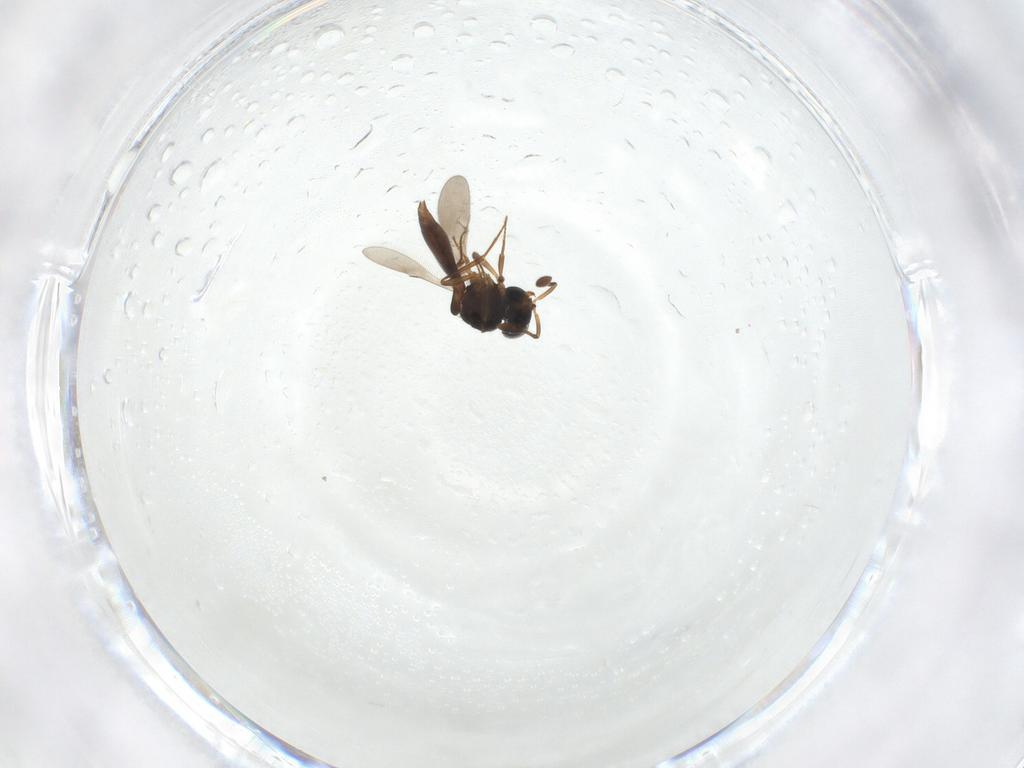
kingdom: Animalia
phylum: Arthropoda
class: Insecta
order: Hymenoptera
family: Scelionidae
